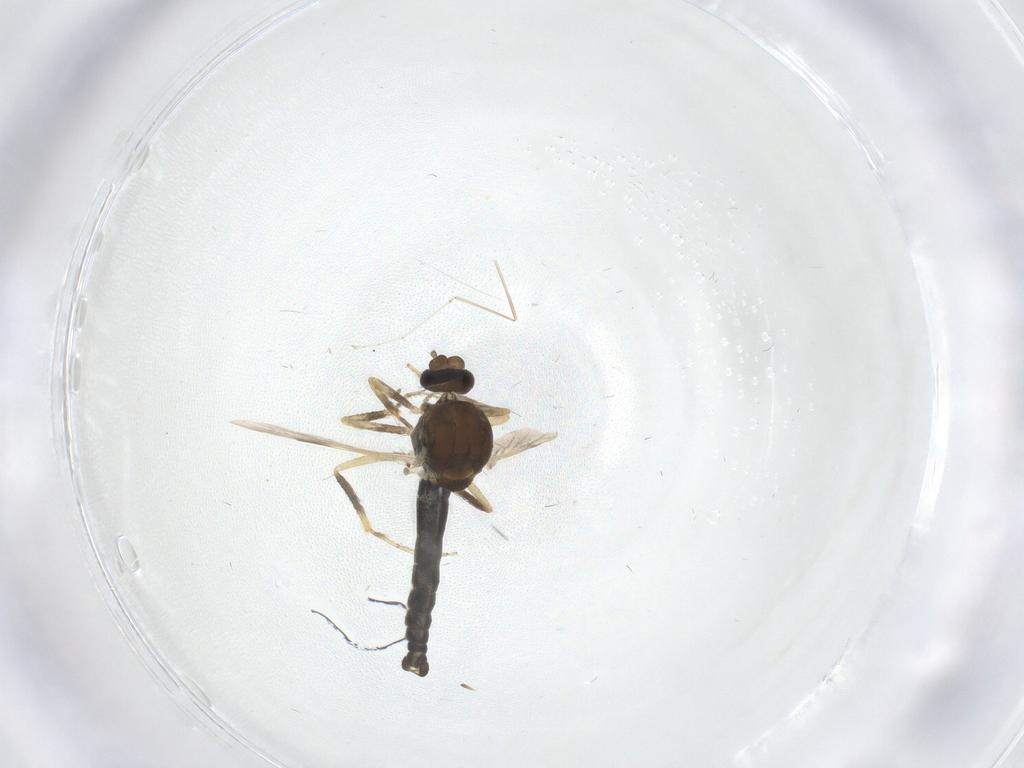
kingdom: Animalia
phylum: Arthropoda
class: Insecta
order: Diptera
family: Ceratopogonidae
